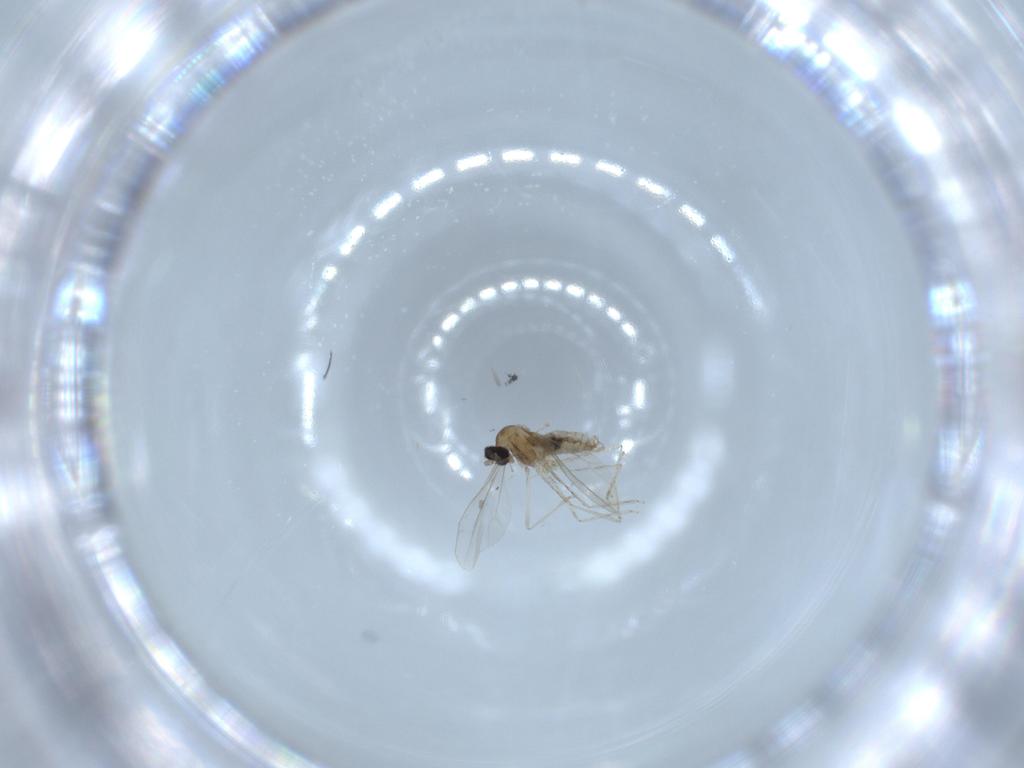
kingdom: Animalia
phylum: Arthropoda
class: Insecta
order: Diptera
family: Cecidomyiidae
